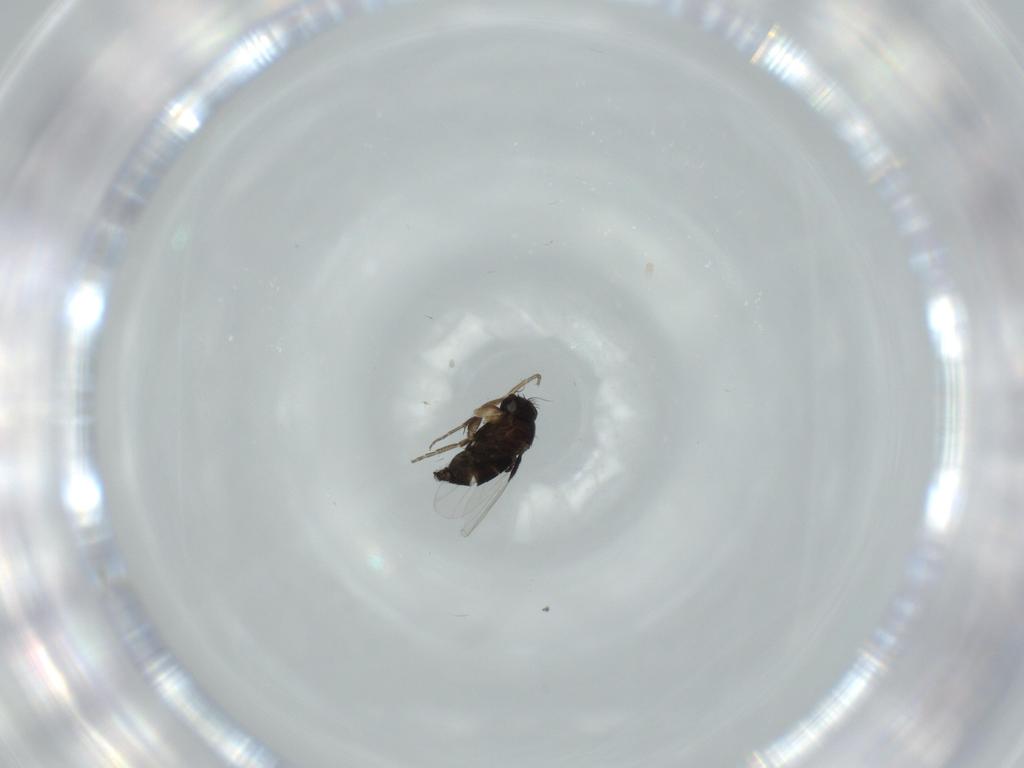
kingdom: Animalia
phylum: Arthropoda
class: Insecta
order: Diptera
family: Phoridae
